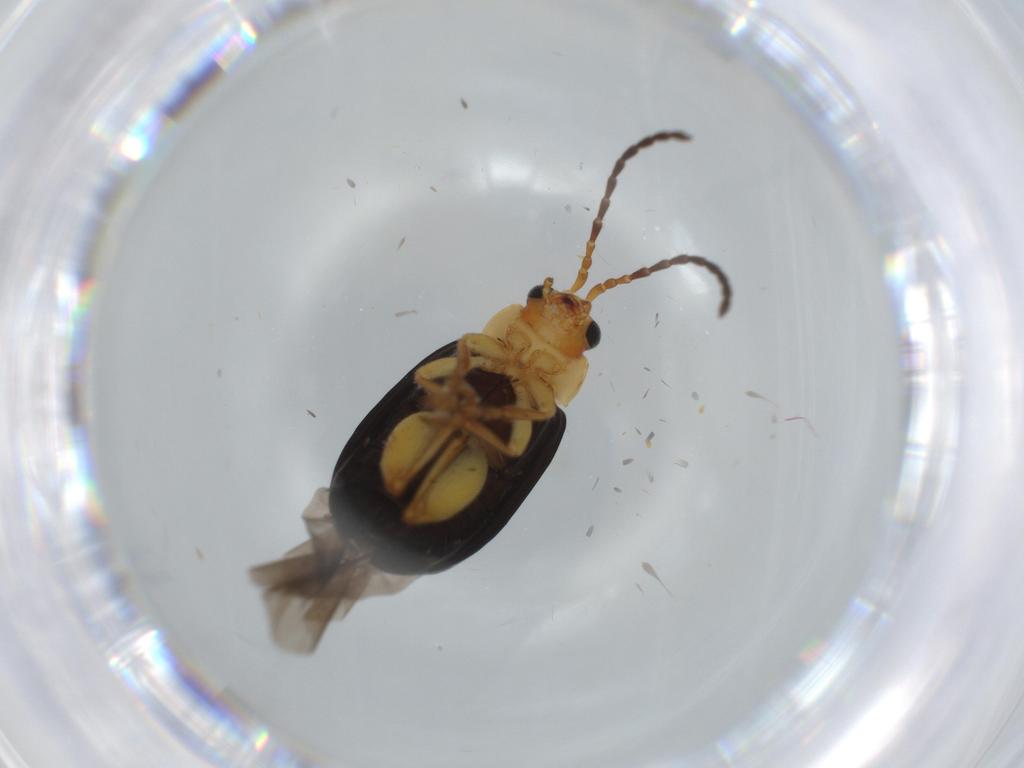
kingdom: Animalia
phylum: Arthropoda
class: Insecta
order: Coleoptera
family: Chrysomelidae
